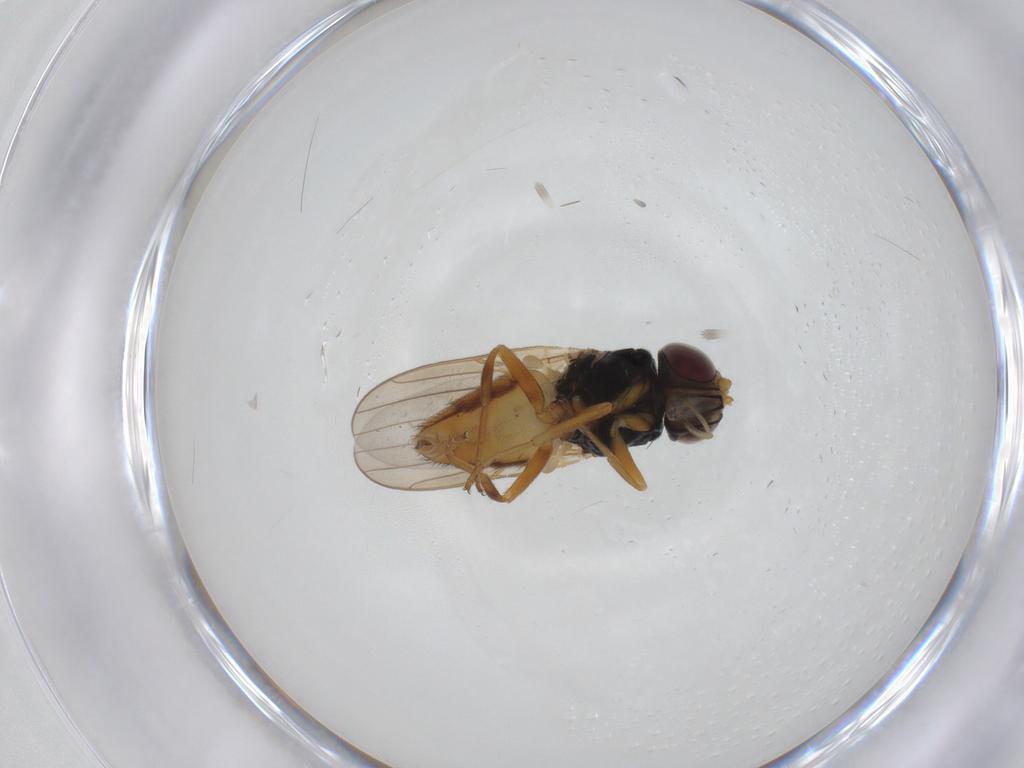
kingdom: Animalia
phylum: Arthropoda
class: Insecta
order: Diptera
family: Chloropidae
